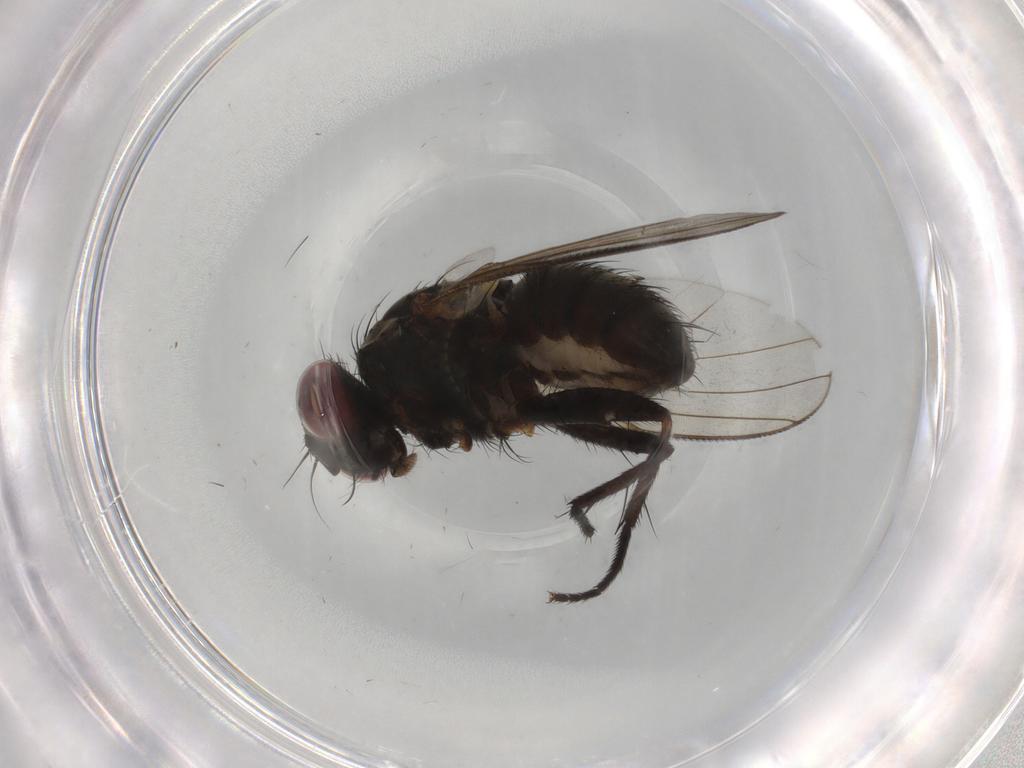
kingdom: Animalia
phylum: Arthropoda
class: Insecta
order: Diptera
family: Muscidae
